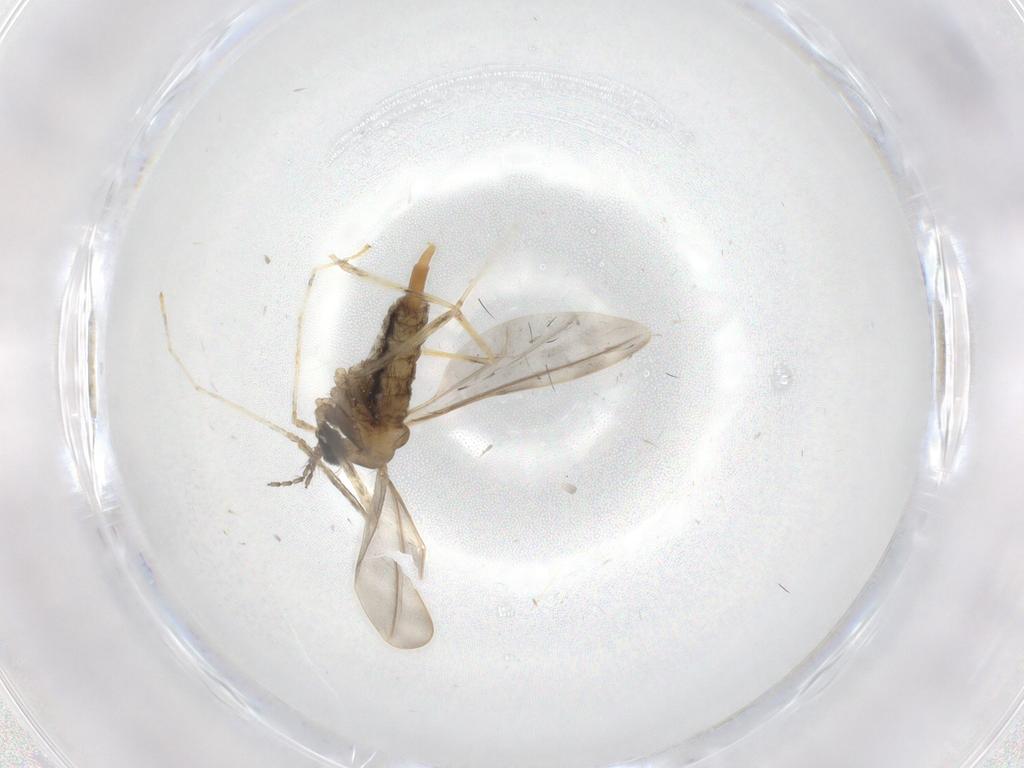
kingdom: Animalia
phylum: Arthropoda
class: Insecta
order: Diptera
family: Cecidomyiidae
